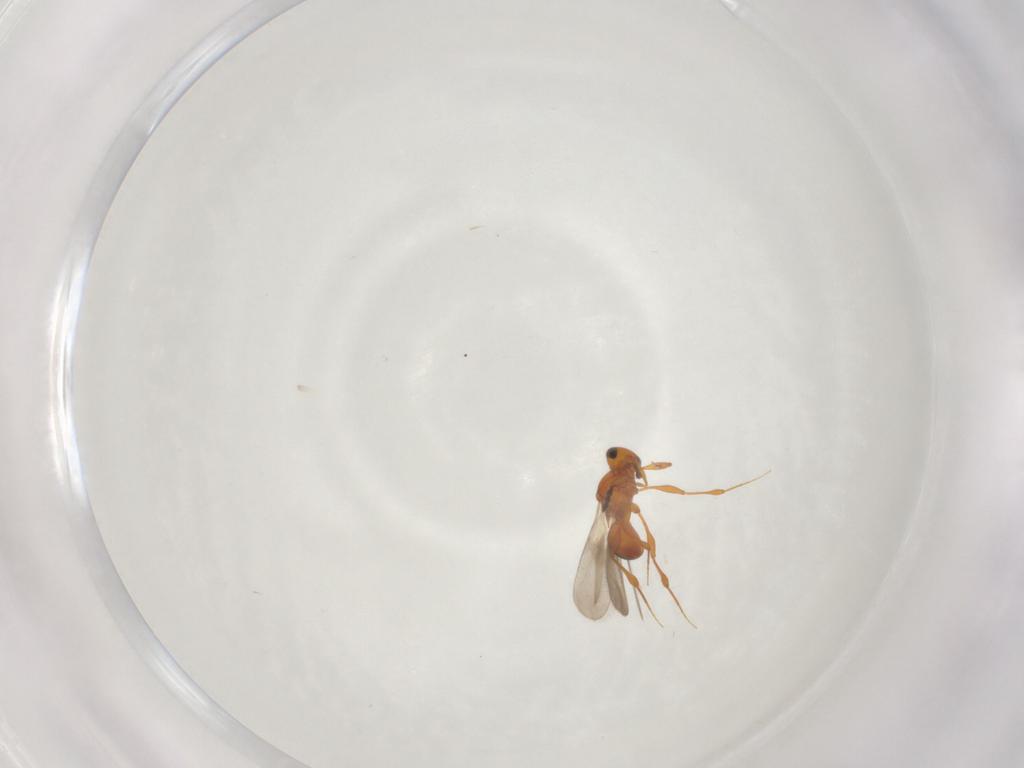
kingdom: Animalia
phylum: Arthropoda
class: Insecta
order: Hymenoptera
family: Platygastridae
